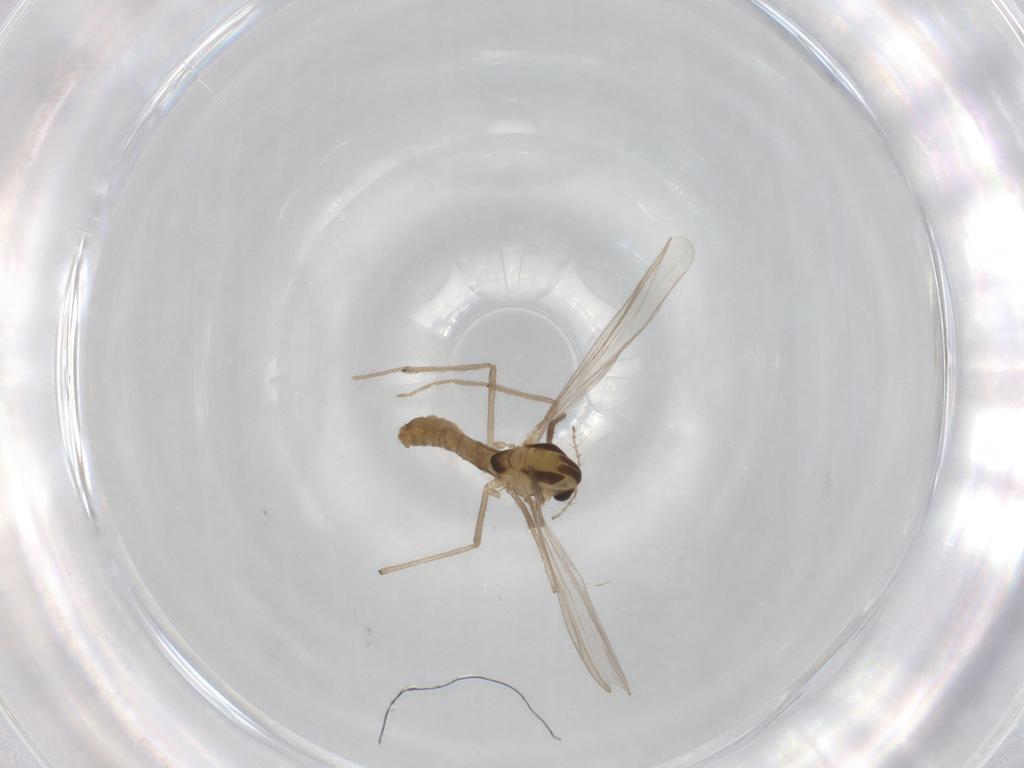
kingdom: Animalia
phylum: Arthropoda
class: Insecta
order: Diptera
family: Chironomidae
